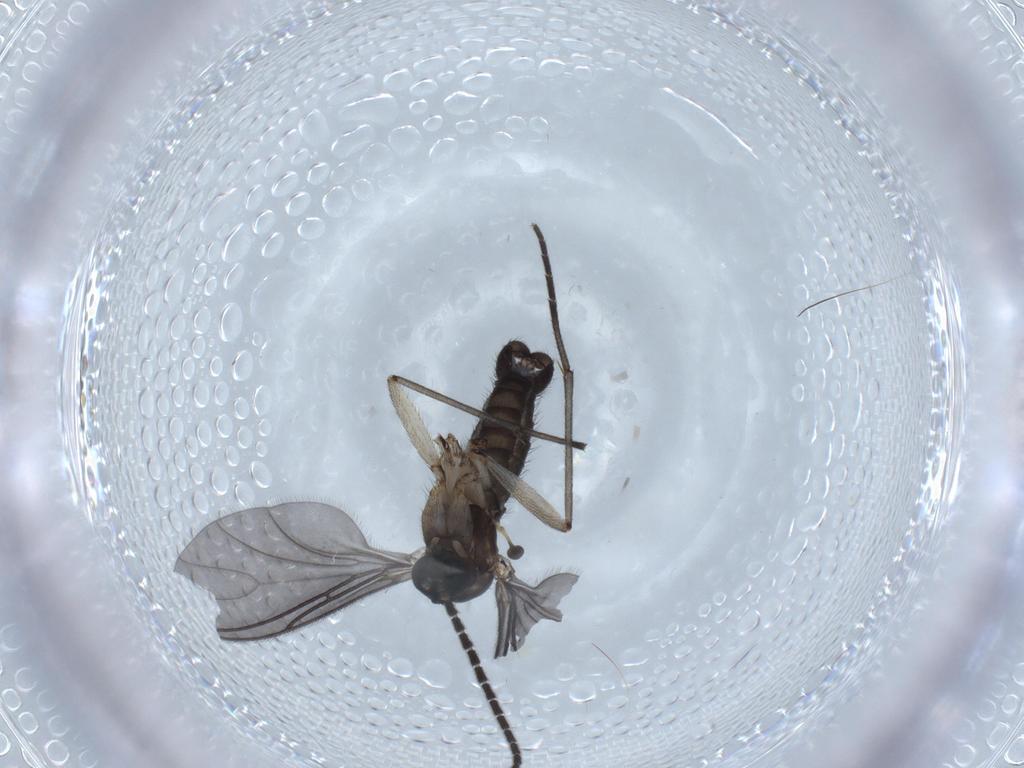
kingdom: Animalia
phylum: Arthropoda
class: Insecta
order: Diptera
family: Sciaridae
